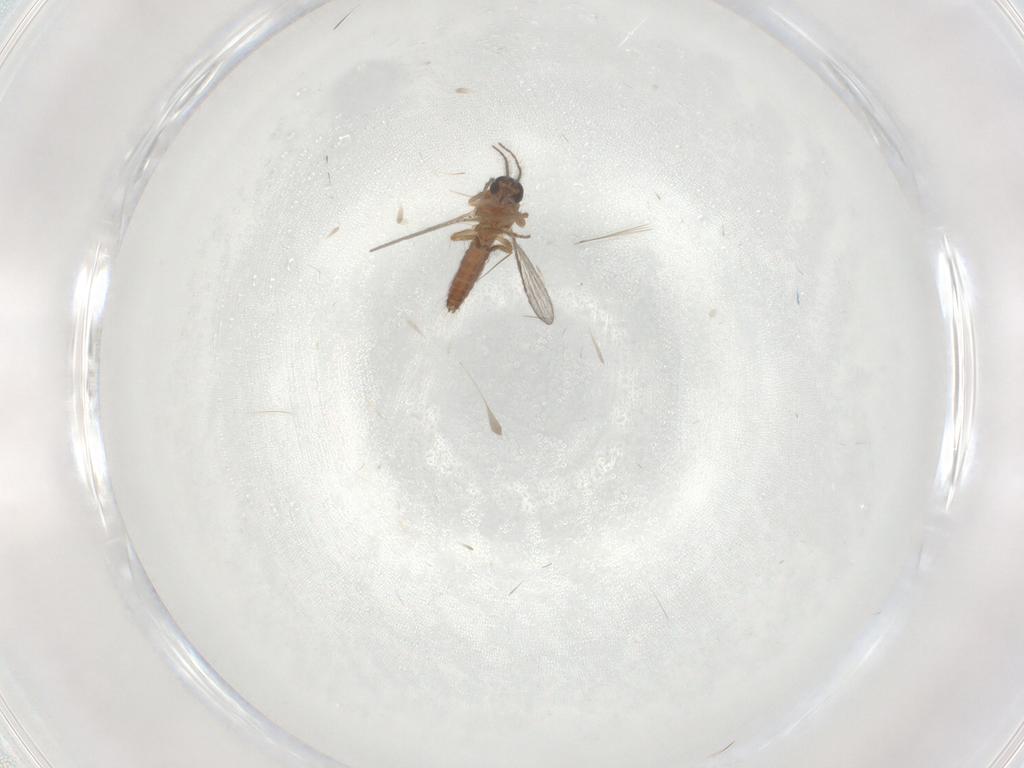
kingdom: Animalia
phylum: Arthropoda
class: Insecta
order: Diptera
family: Ceratopogonidae
